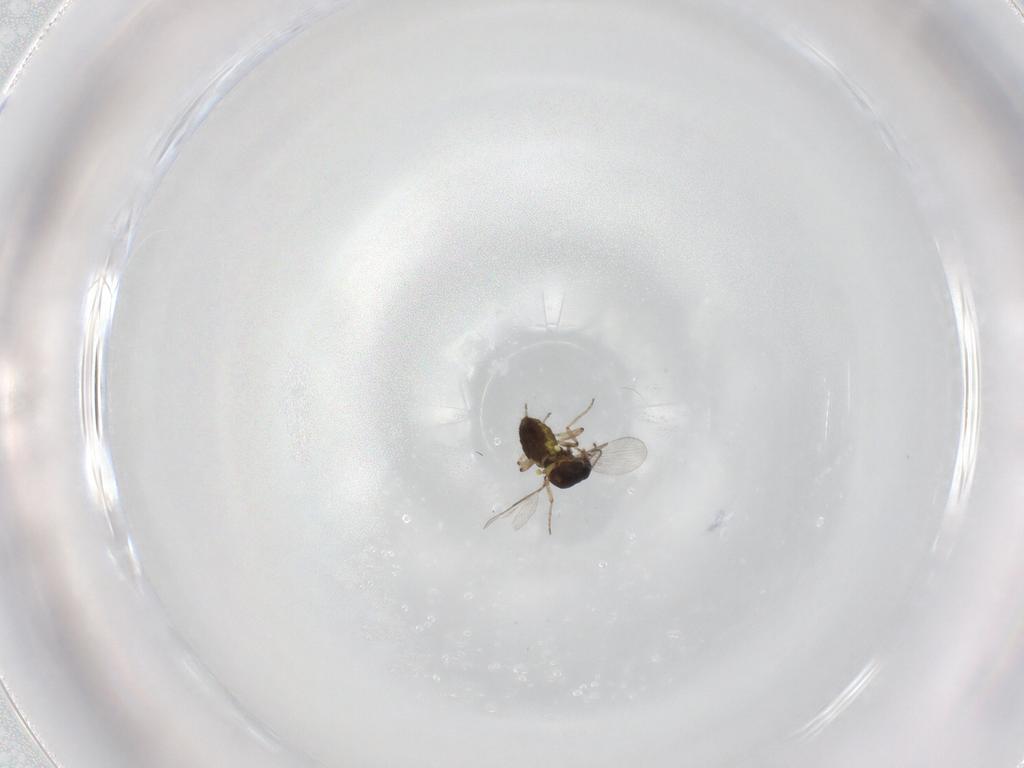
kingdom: Animalia
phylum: Arthropoda
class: Insecta
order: Diptera
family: Ceratopogonidae
